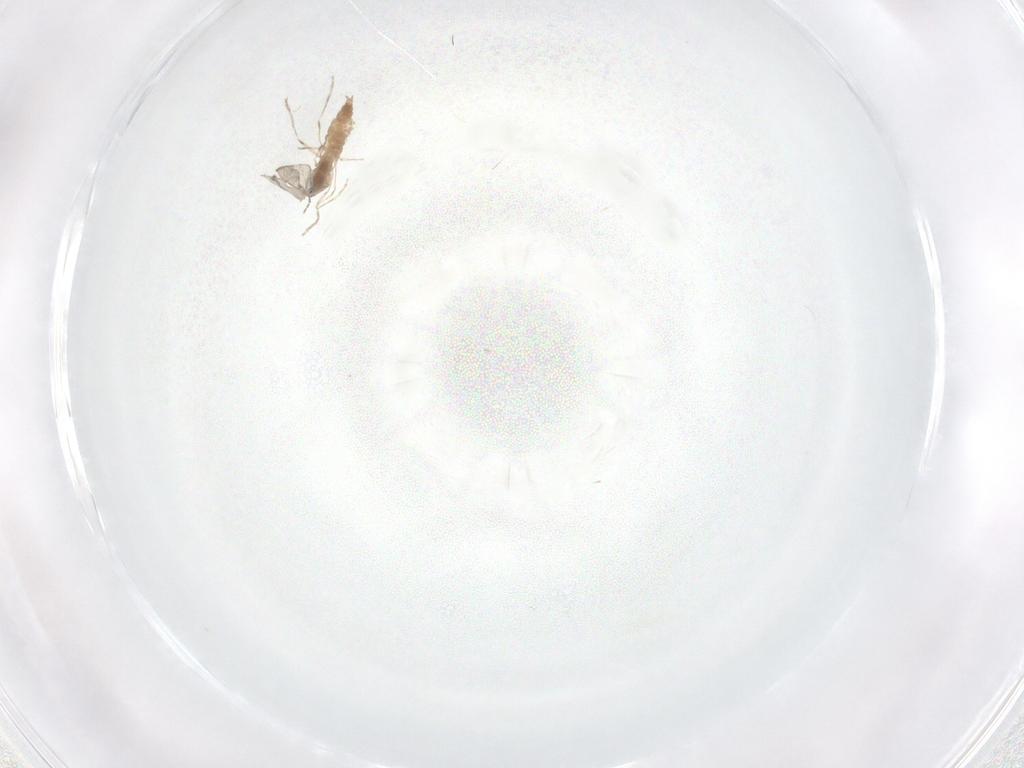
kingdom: Animalia
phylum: Arthropoda
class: Insecta
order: Diptera
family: Cecidomyiidae
